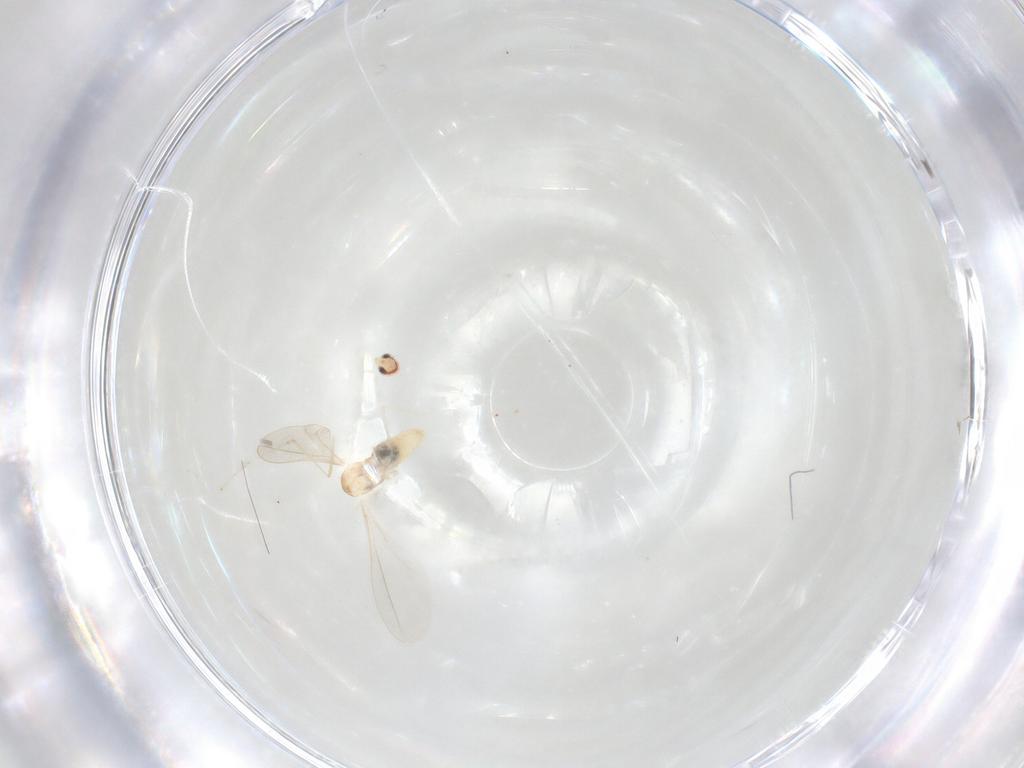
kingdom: Animalia
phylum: Arthropoda
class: Insecta
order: Diptera
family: Cecidomyiidae
